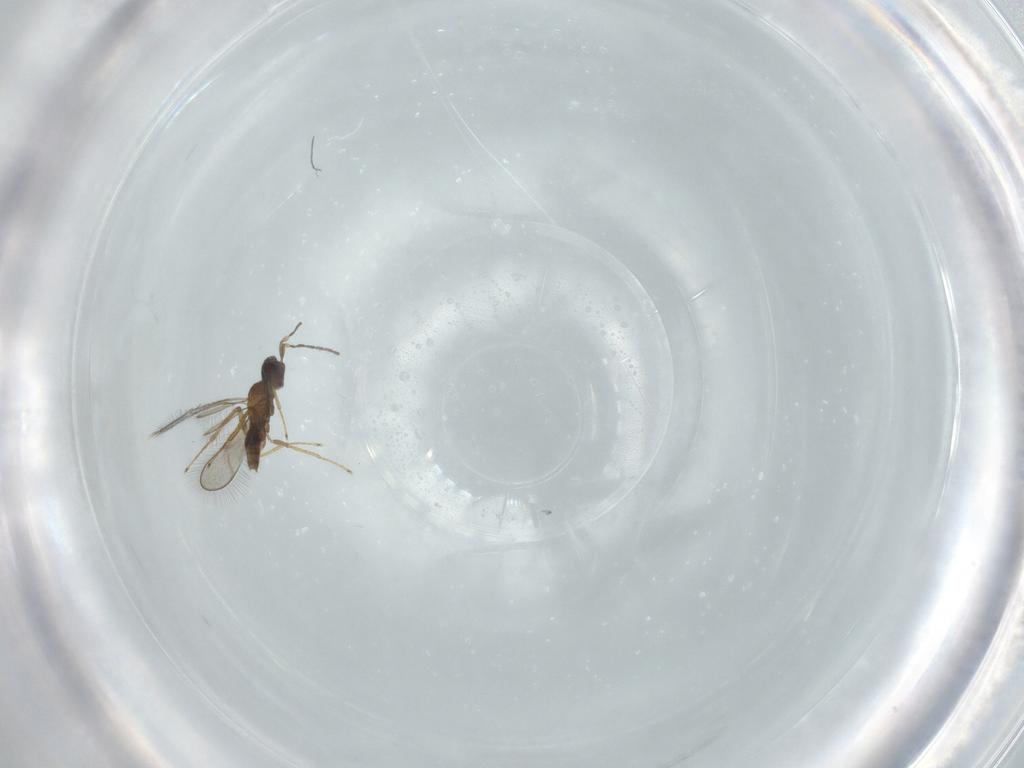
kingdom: Animalia
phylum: Arthropoda
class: Insecta
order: Hymenoptera
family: Mymaridae
